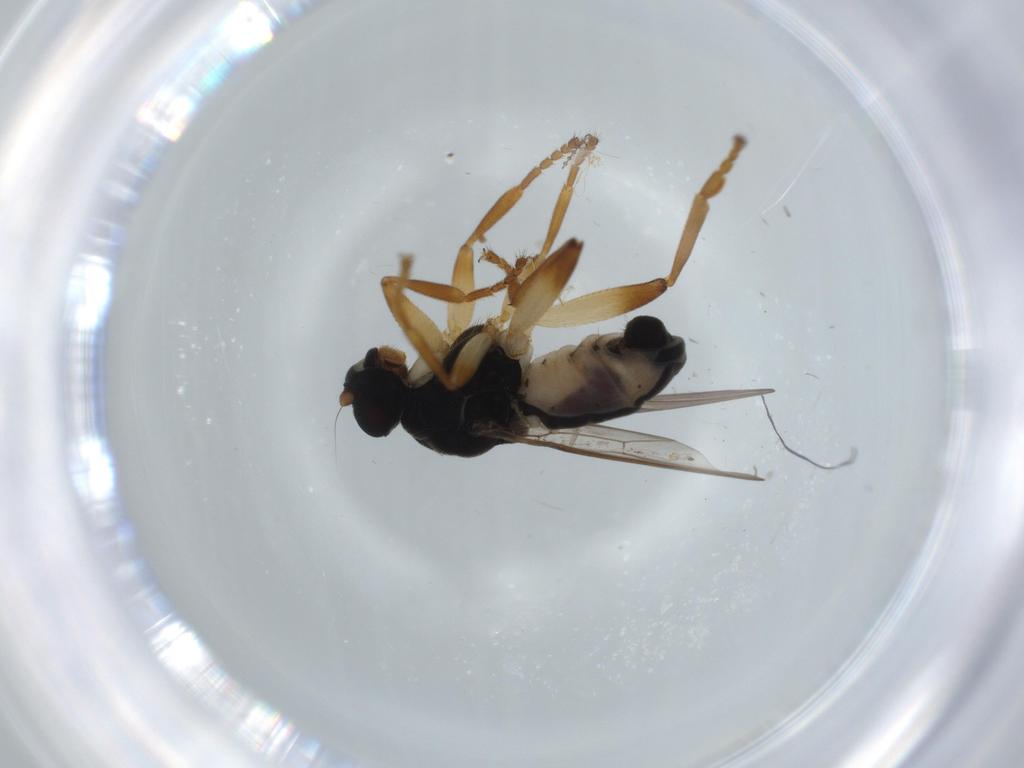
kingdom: Animalia
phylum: Arthropoda
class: Insecta
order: Diptera
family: Sphaeroceridae
